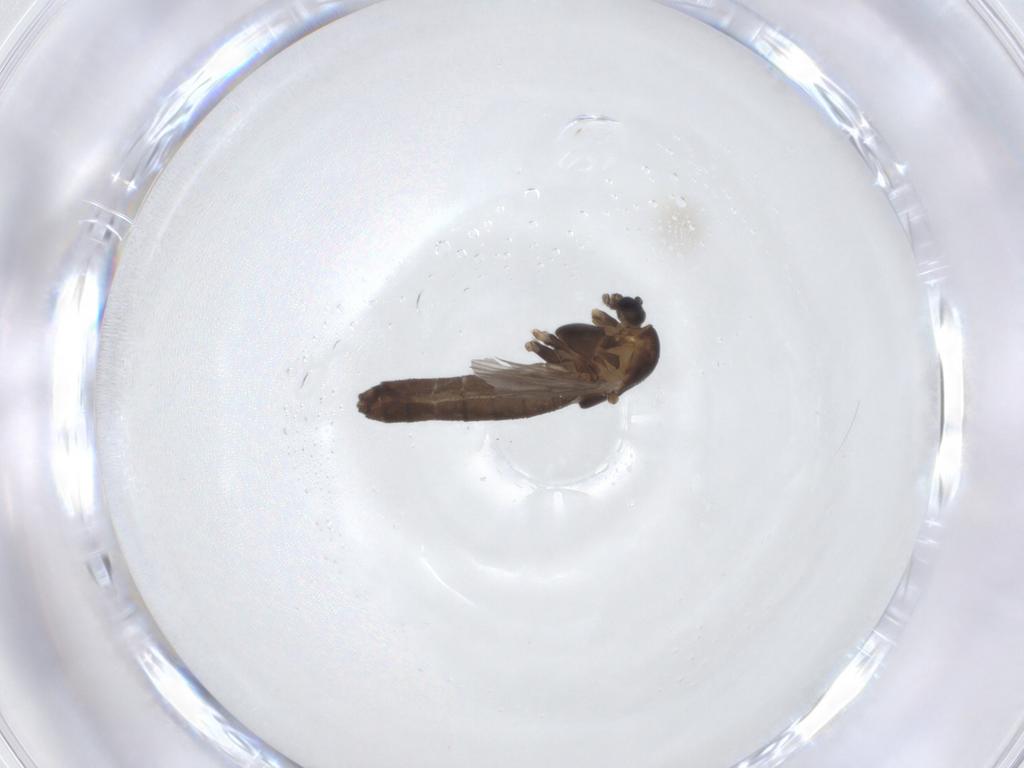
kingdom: Animalia
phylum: Arthropoda
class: Insecta
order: Diptera
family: Chironomidae
